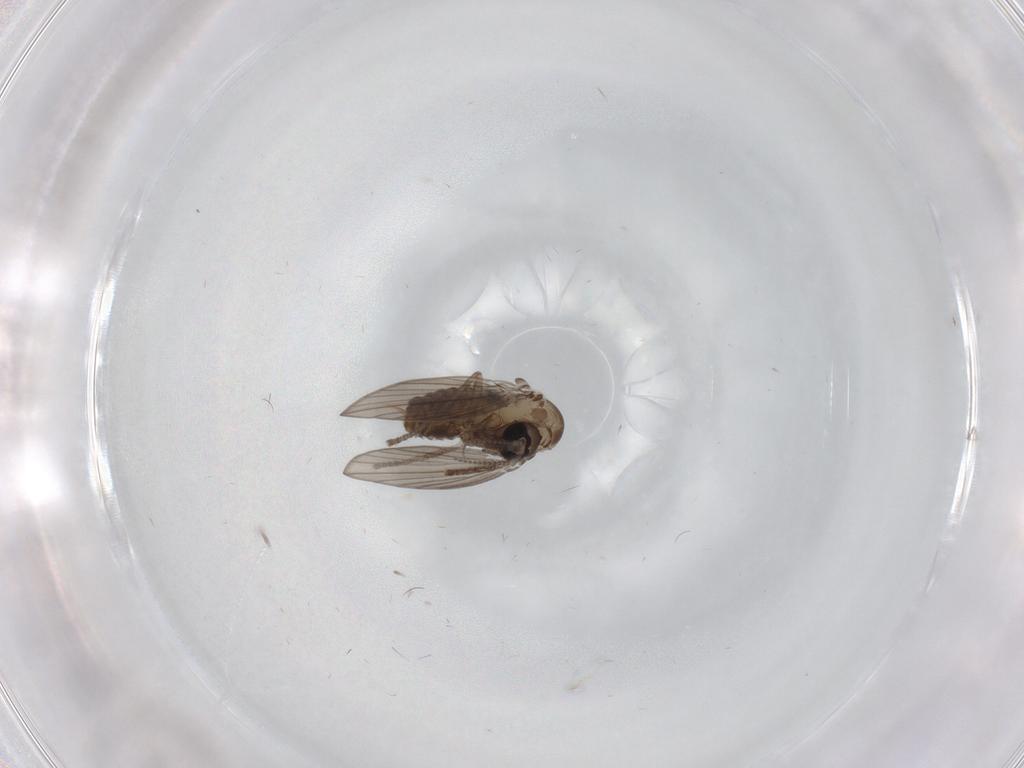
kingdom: Animalia
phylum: Arthropoda
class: Insecta
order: Diptera
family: Psychodidae
